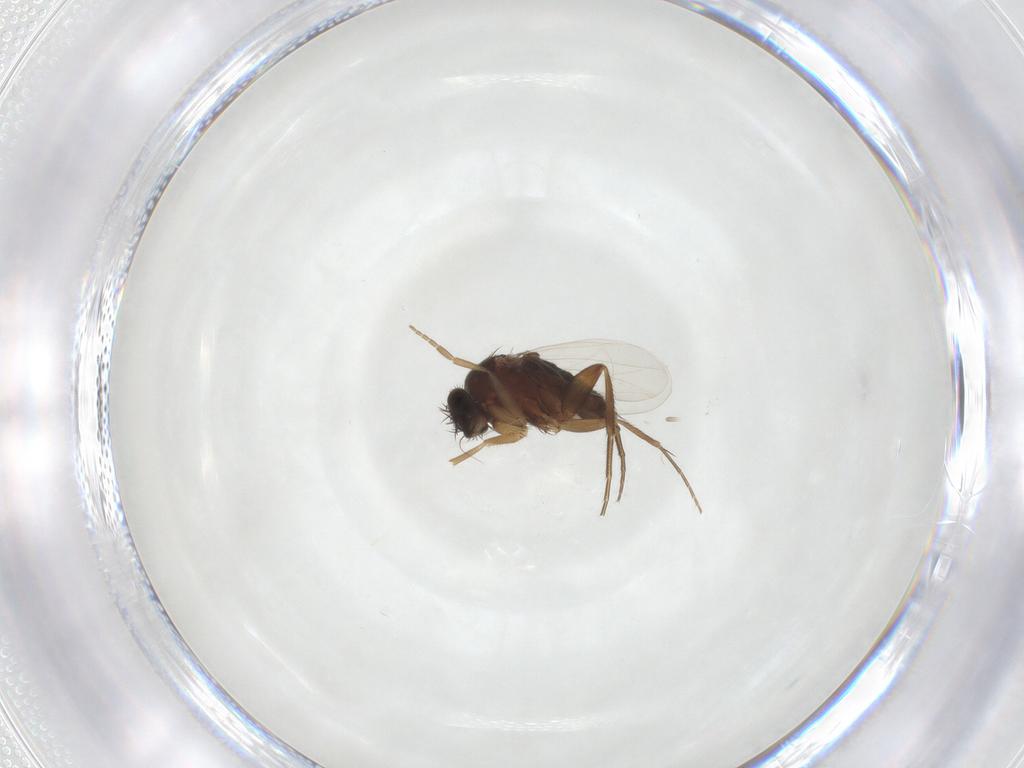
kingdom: Animalia
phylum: Arthropoda
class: Insecta
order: Diptera
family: Phoridae
